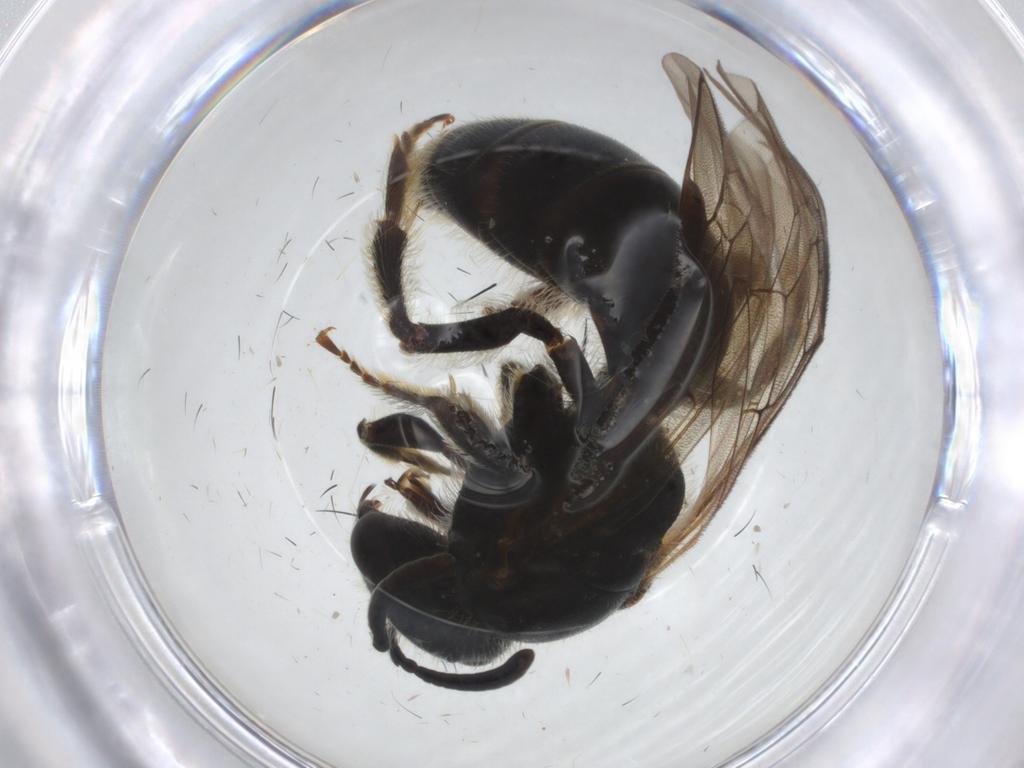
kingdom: Animalia
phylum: Arthropoda
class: Insecta
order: Hymenoptera
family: Halictidae
